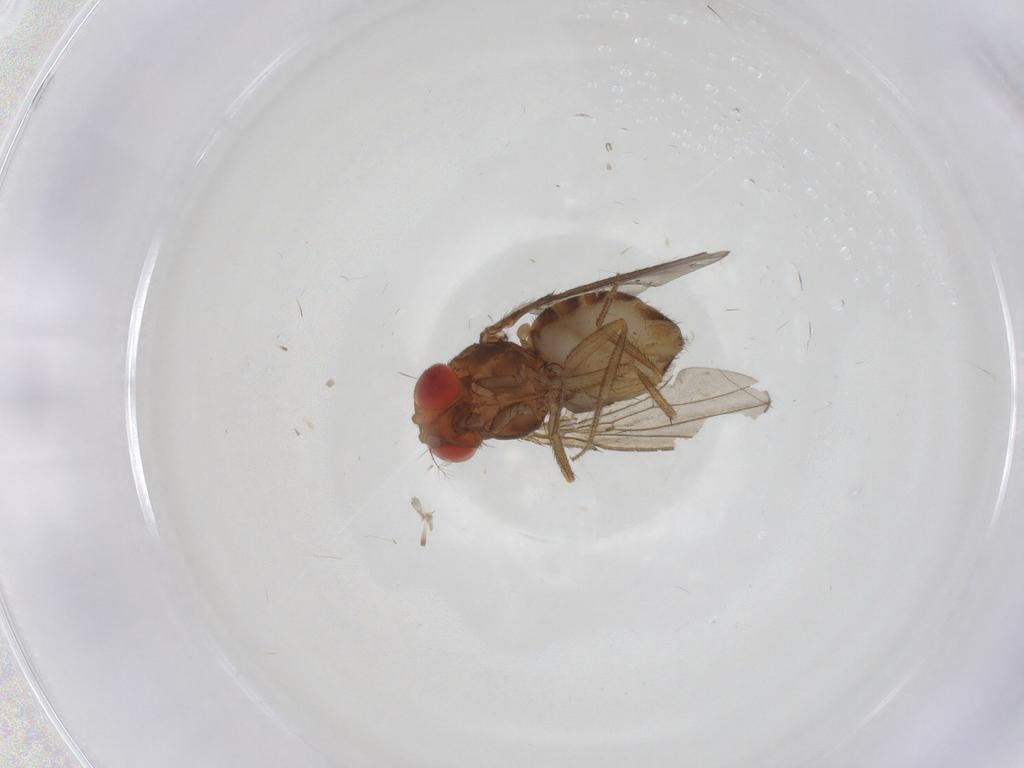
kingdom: Animalia
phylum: Arthropoda
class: Insecta
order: Diptera
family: Drosophilidae
